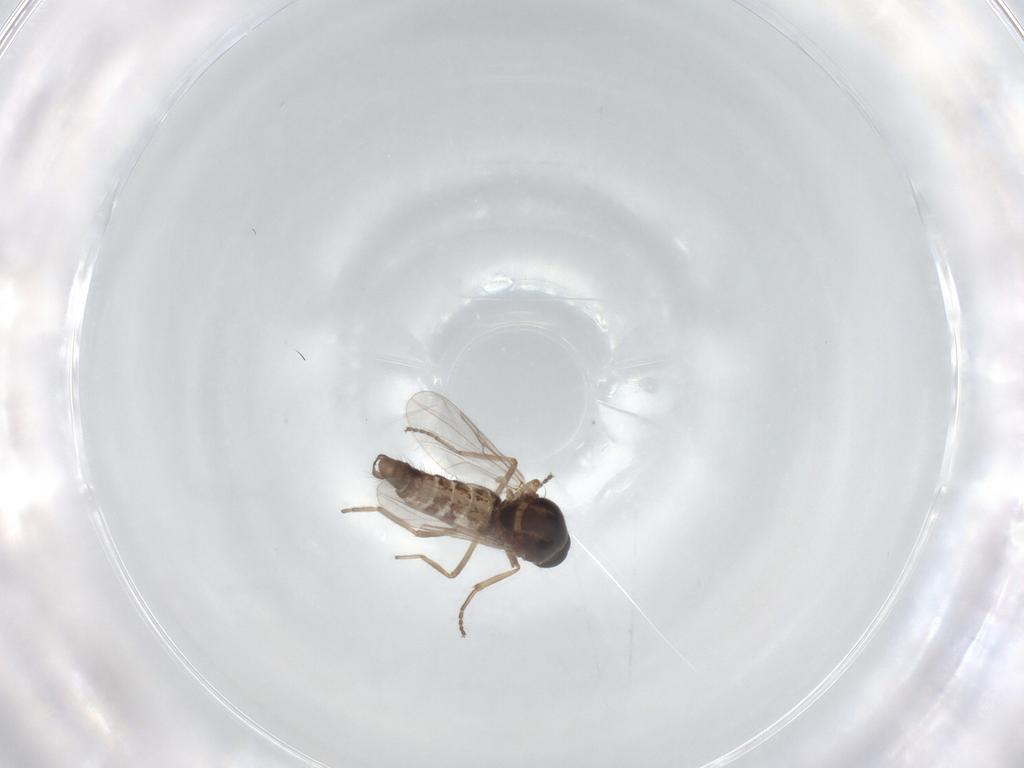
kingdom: Animalia
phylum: Arthropoda
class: Insecta
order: Diptera
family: Ceratopogonidae
